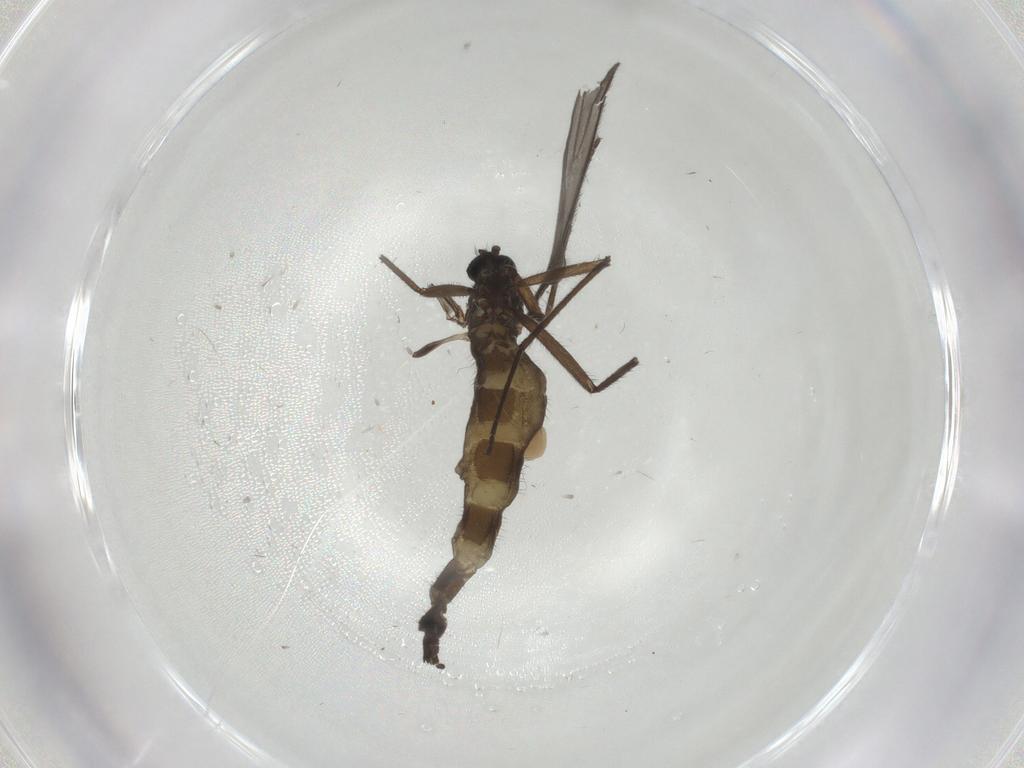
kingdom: Animalia
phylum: Arthropoda
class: Insecta
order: Diptera
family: Sciaridae
